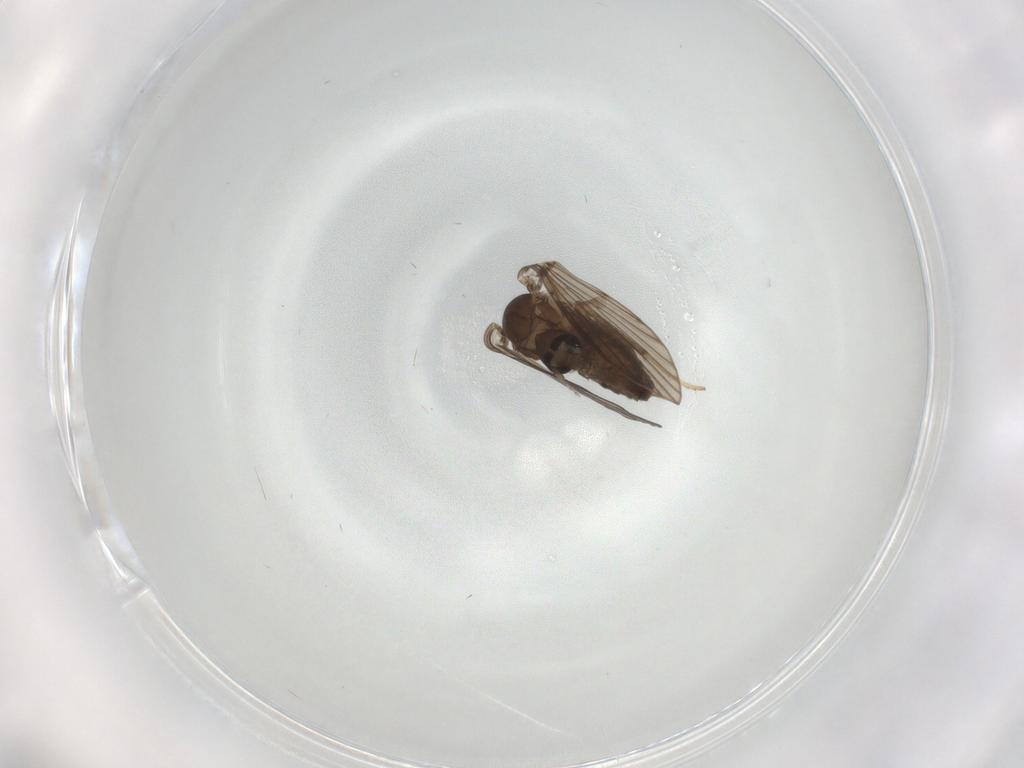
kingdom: Animalia
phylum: Arthropoda
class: Insecta
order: Diptera
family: Psychodidae
